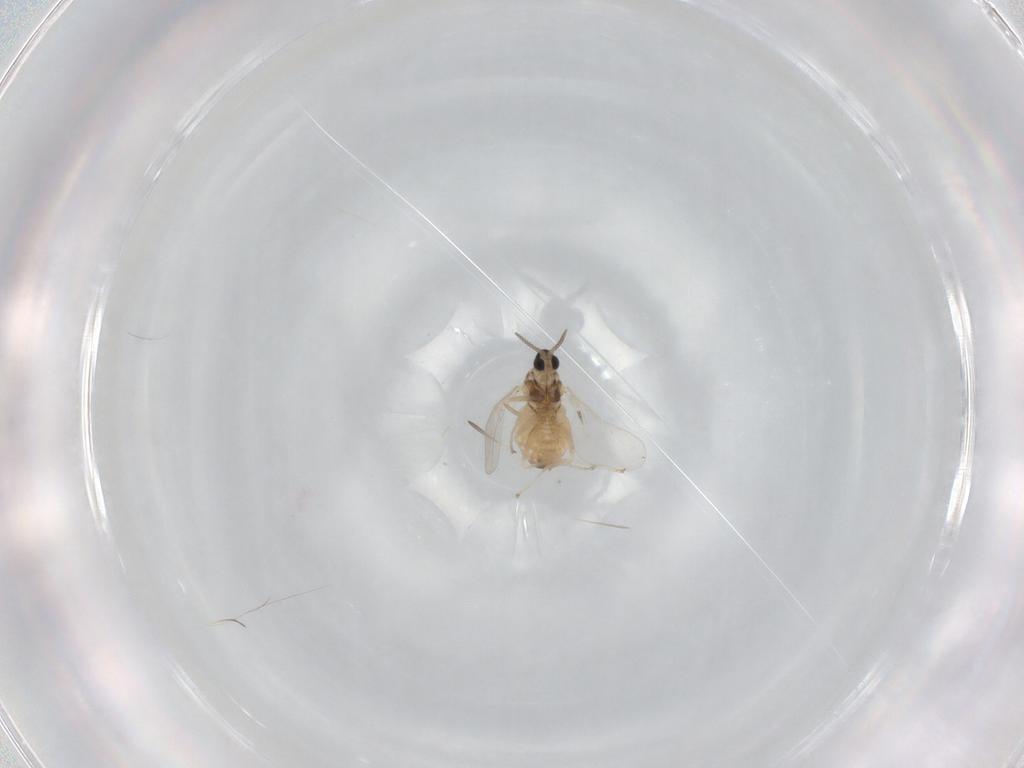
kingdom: Animalia
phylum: Arthropoda
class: Insecta
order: Diptera
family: Cecidomyiidae
